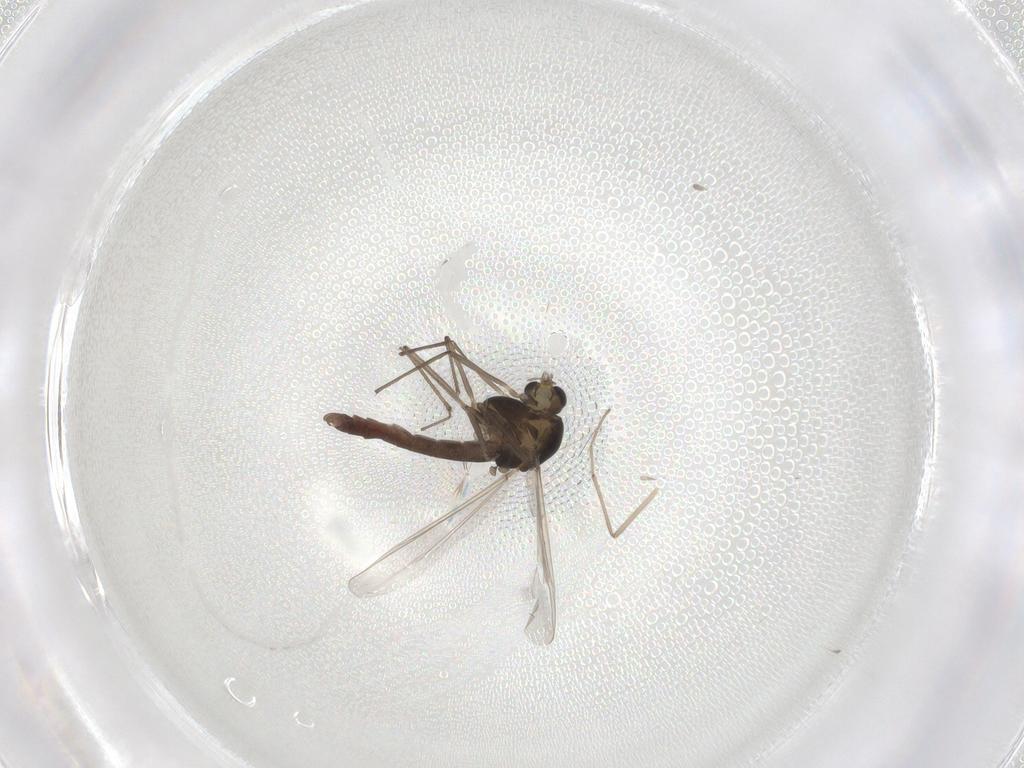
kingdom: Animalia
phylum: Arthropoda
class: Insecta
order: Diptera
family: Chironomidae
